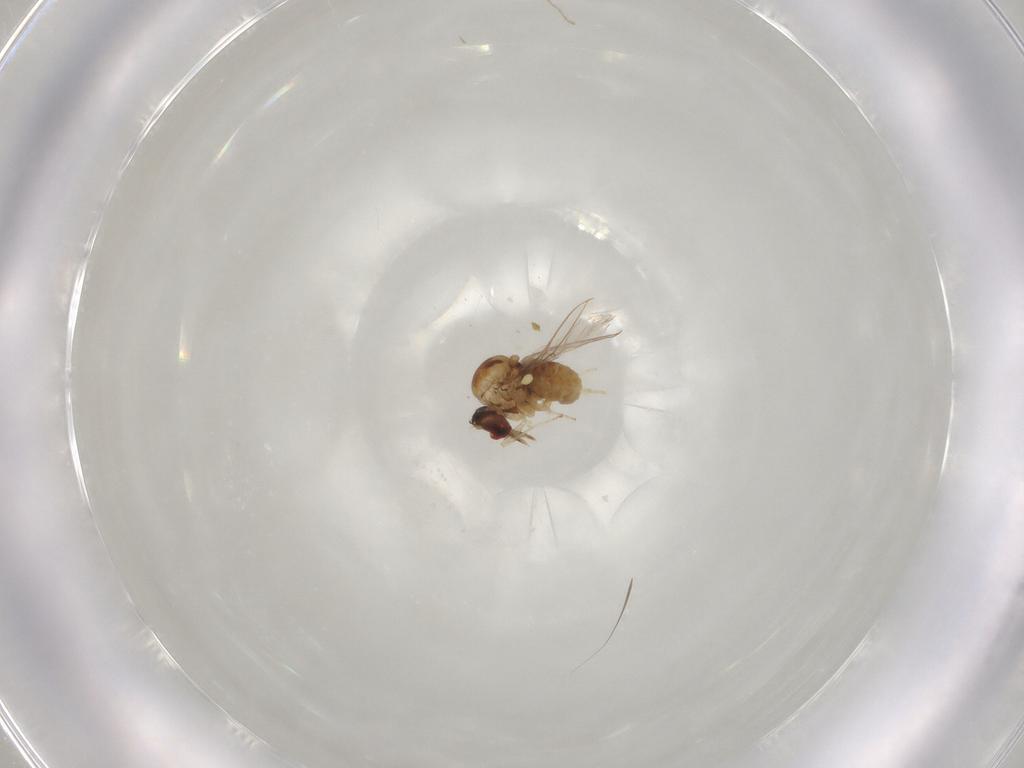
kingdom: Animalia
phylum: Arthropoda
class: Insecta
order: Diptera
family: Mythicomyiidae
